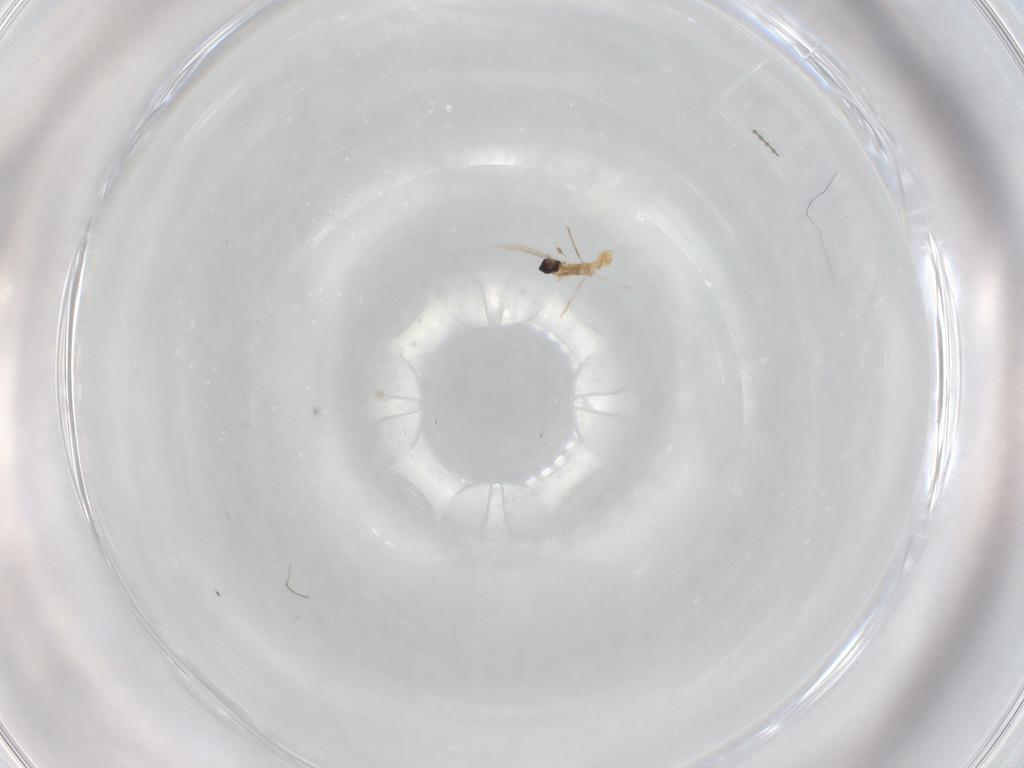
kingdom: Animalia
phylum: Arthropoda
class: Insecta
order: Diptera
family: Cecidomyiidae
